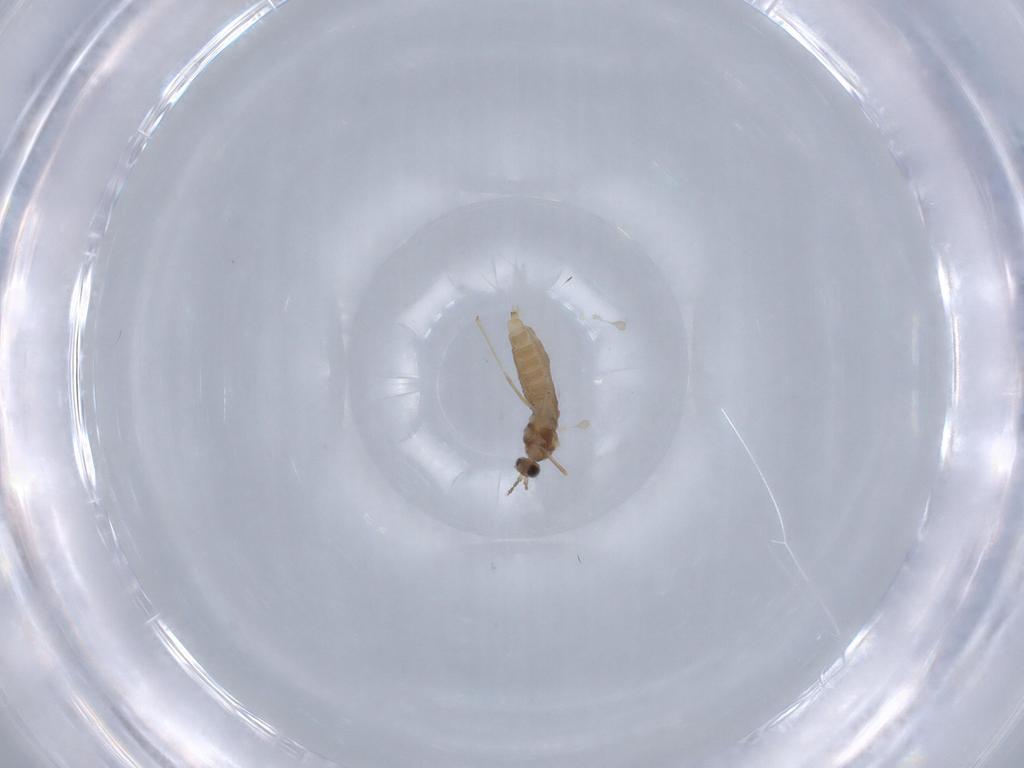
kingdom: Animalia
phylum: Arthropoda
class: Insecta
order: Diptera
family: Cecidomyiidae
